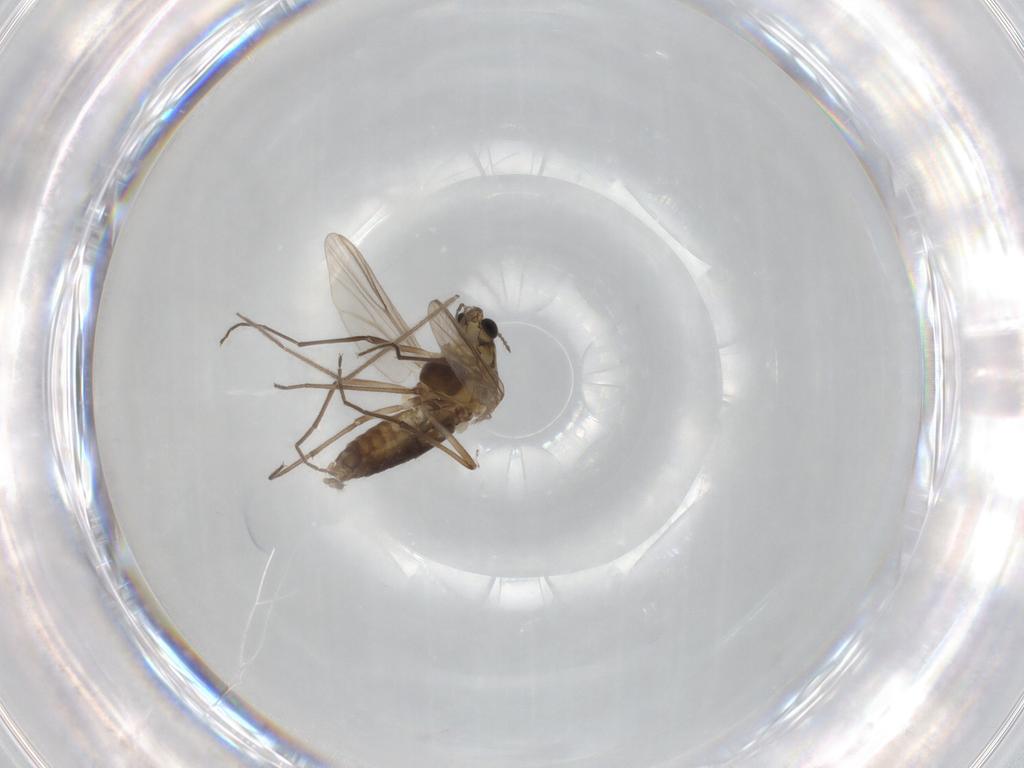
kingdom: Animalia
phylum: Arthropoda
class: Insecta
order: Diptera
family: Chironomidae
